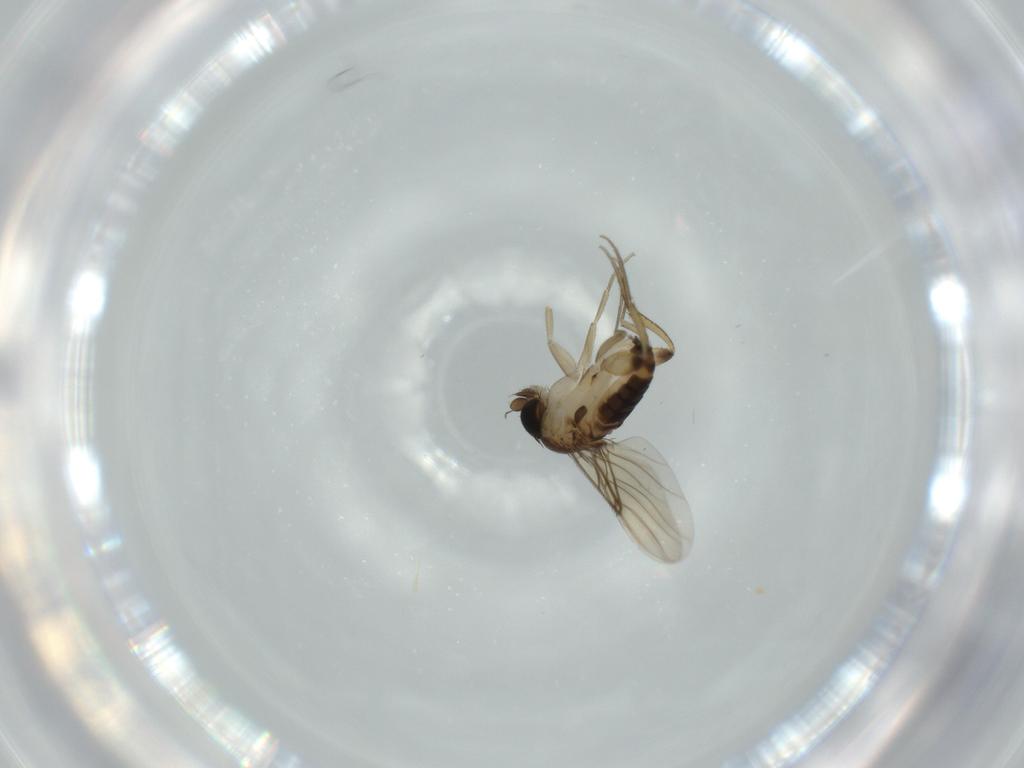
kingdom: Animalia
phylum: Arthropoda
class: Insecta
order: Diptera
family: Phoridae
